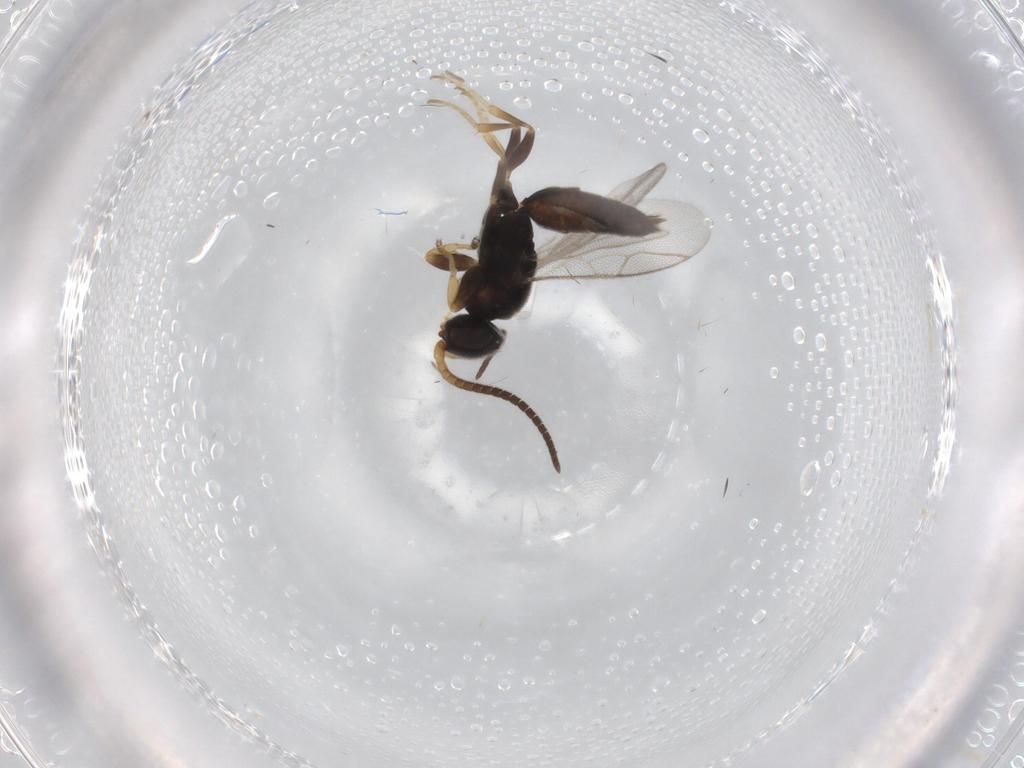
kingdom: Animalia
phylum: Arthropoda
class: Insecta
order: Hymenoptera
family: Sclerogibbidae
